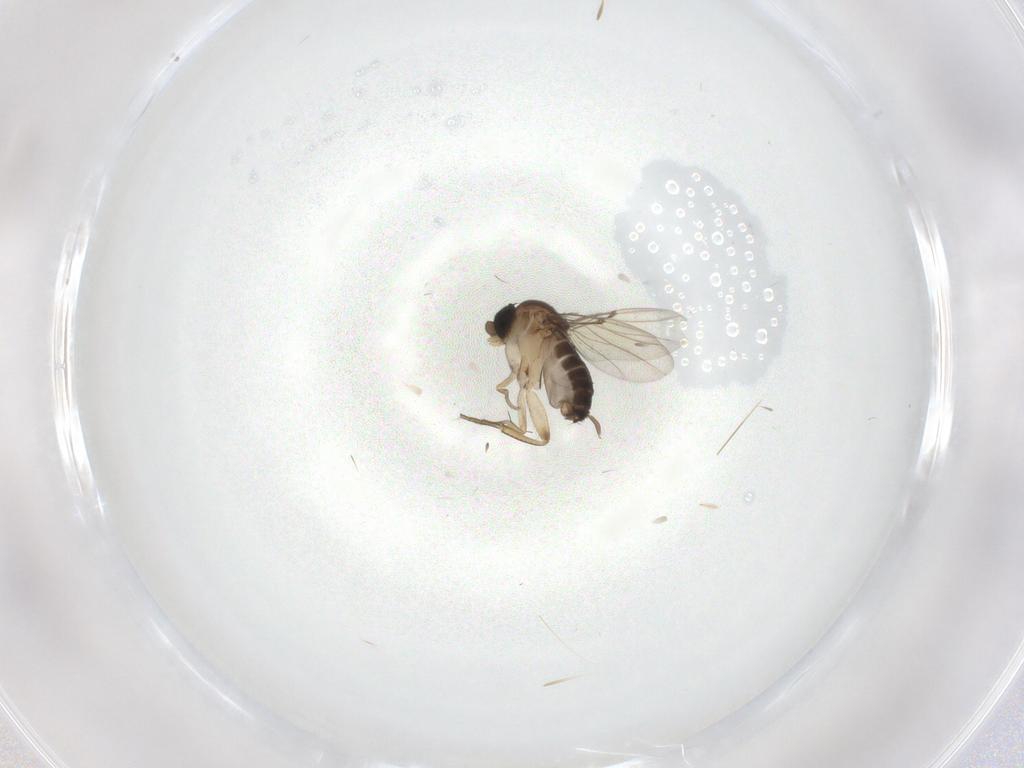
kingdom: Animalia
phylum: Arthropoda
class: Insecta
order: Diptera
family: Phoridae
